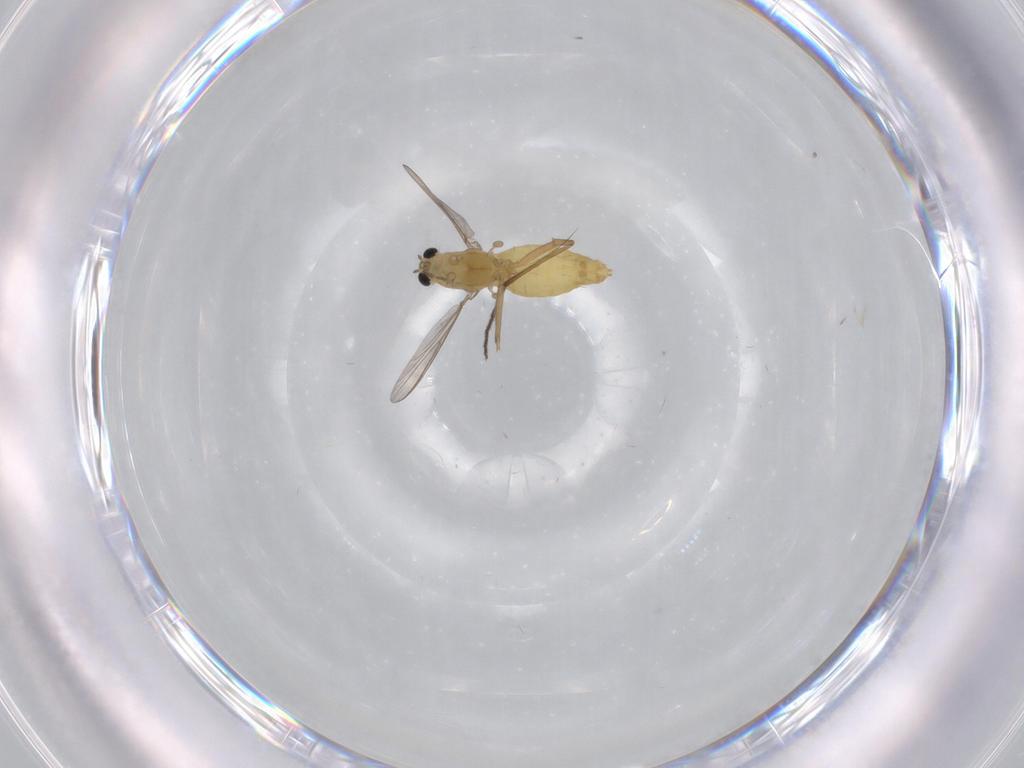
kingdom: Animalia
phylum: Arthropoda
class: Insecta
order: Diptera
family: Chironomidae
